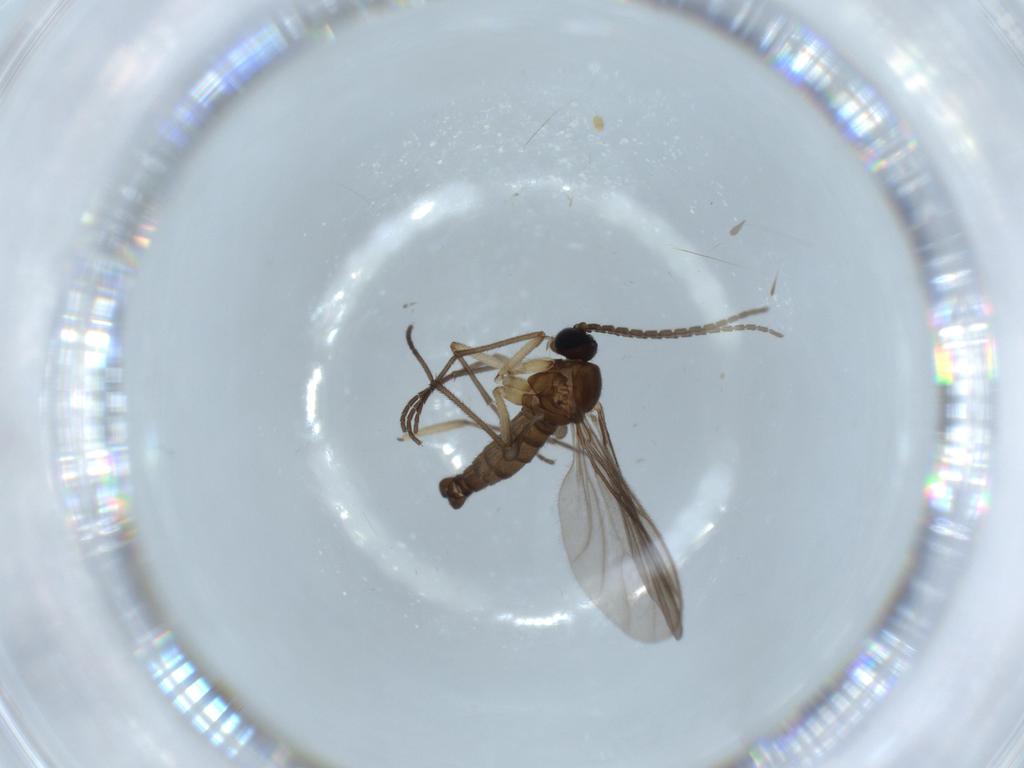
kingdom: Animalia
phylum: Arthropoda
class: Insecta
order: Diptera
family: Sciaridae
